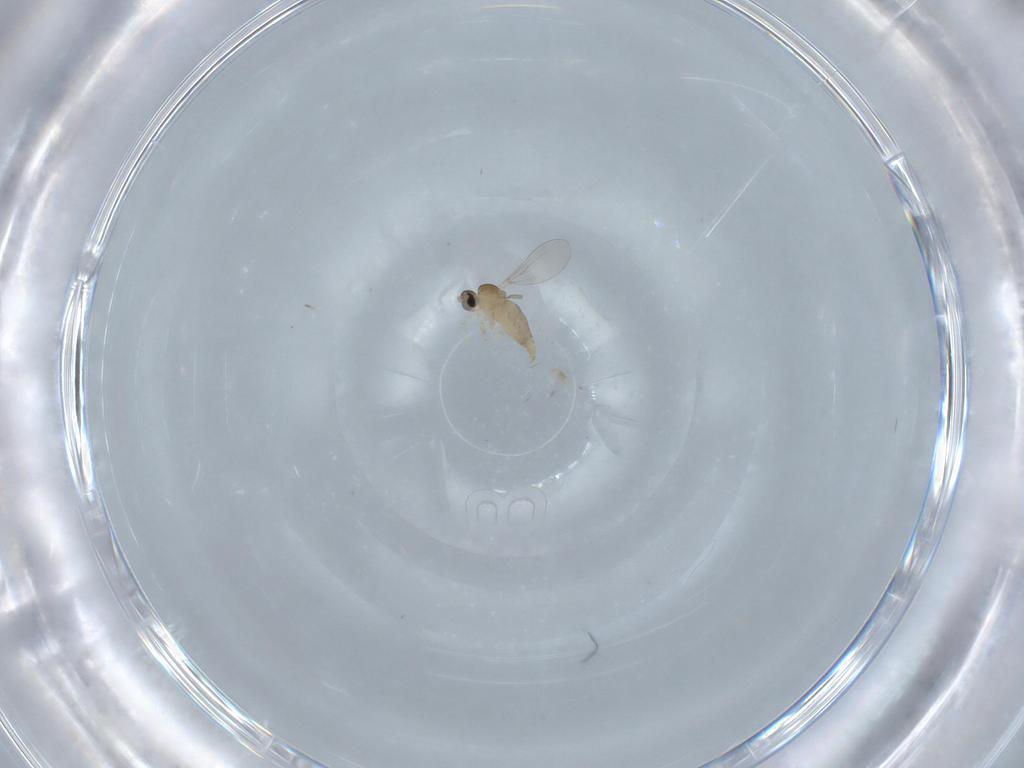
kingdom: Animalia
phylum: Arthropoda
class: Insecta
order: Diptera
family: Cecidomyiidae
